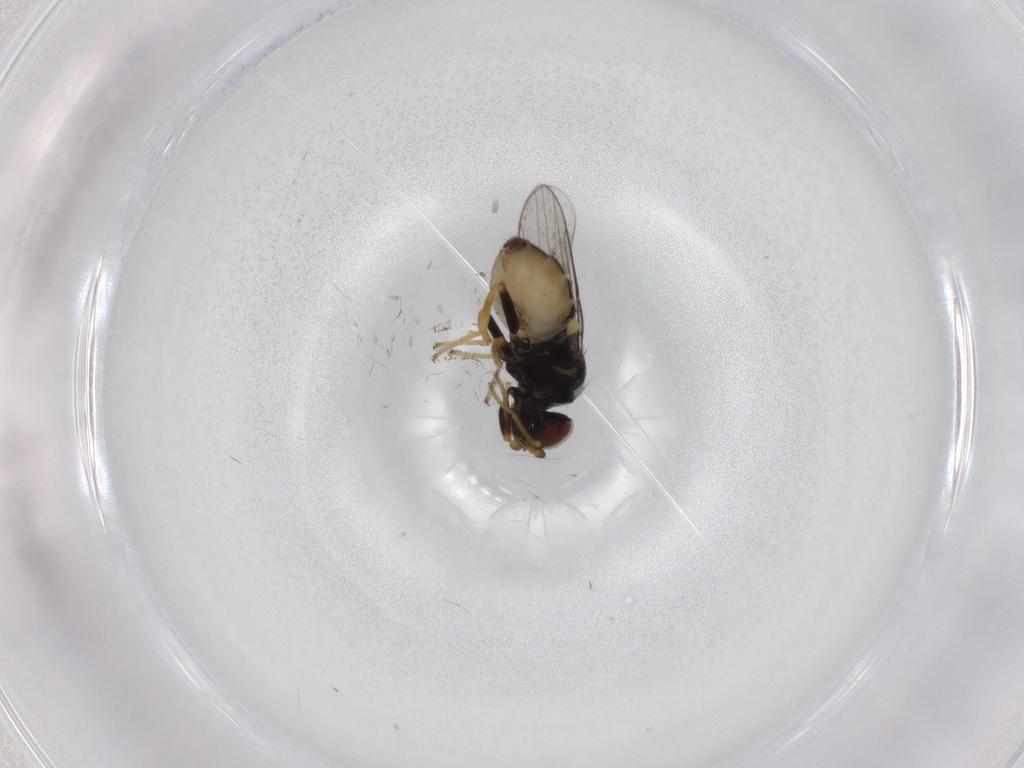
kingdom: Animalia
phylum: Arthropoda
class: Insecta
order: Diptera
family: Chloropidae
